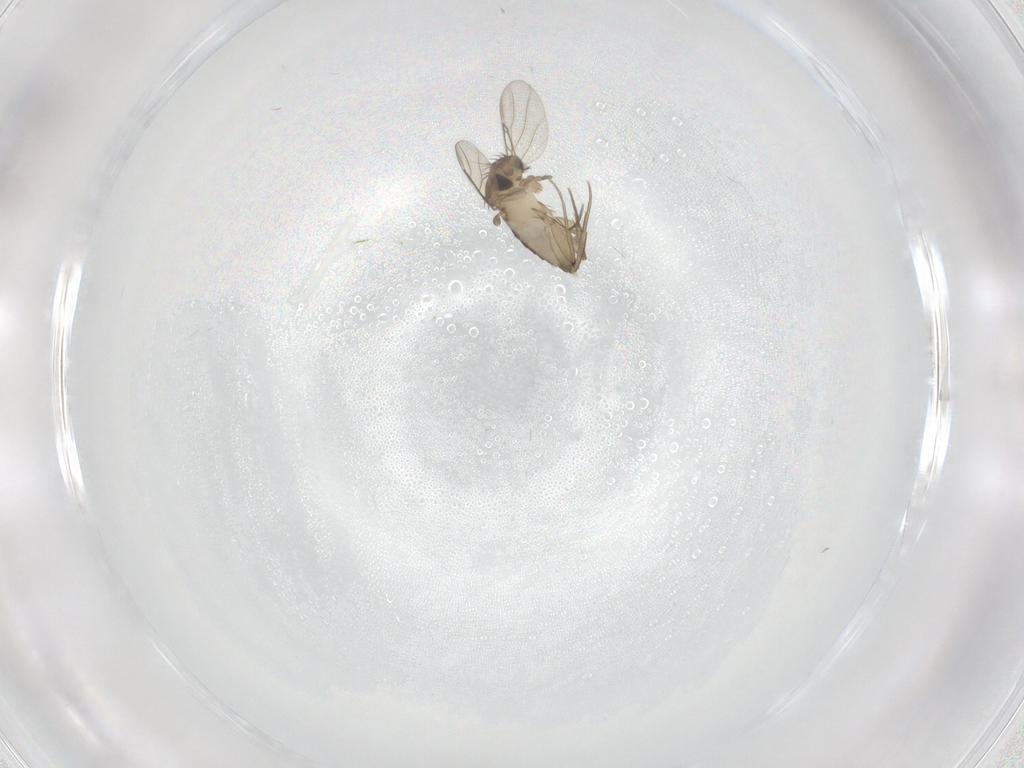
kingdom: Animalia
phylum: Arthropoda
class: Insecta
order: Diptera
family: Phoridae
